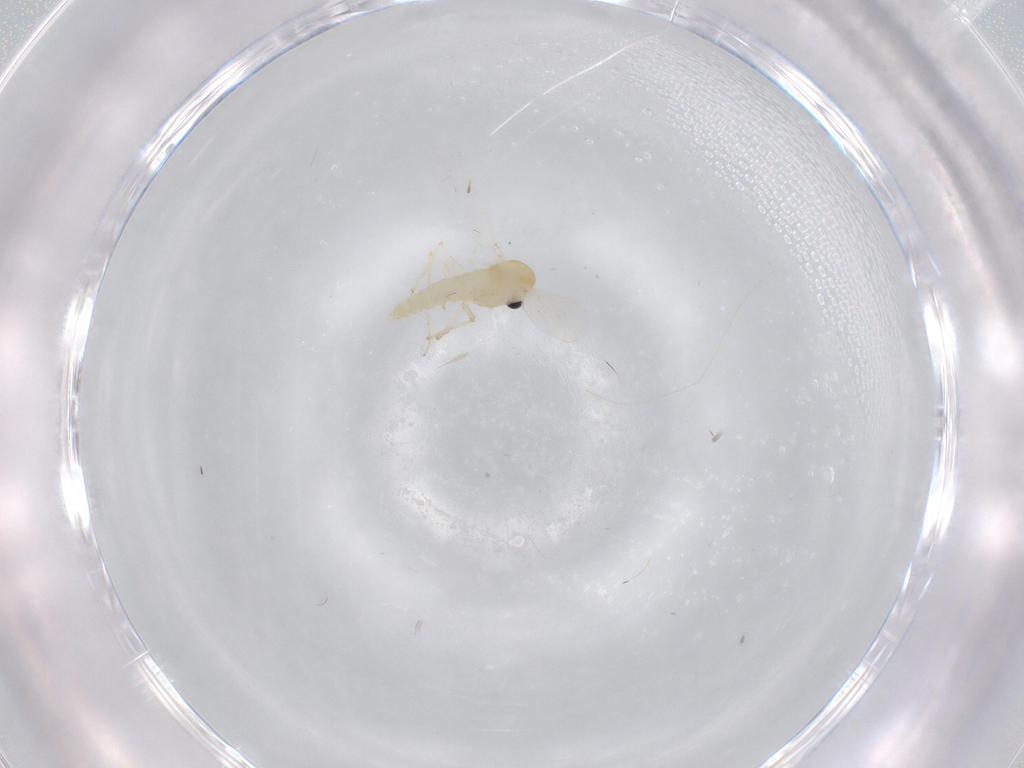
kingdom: Animalia
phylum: Arthropoda
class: Insecta
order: Diptera
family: Chironomidae
